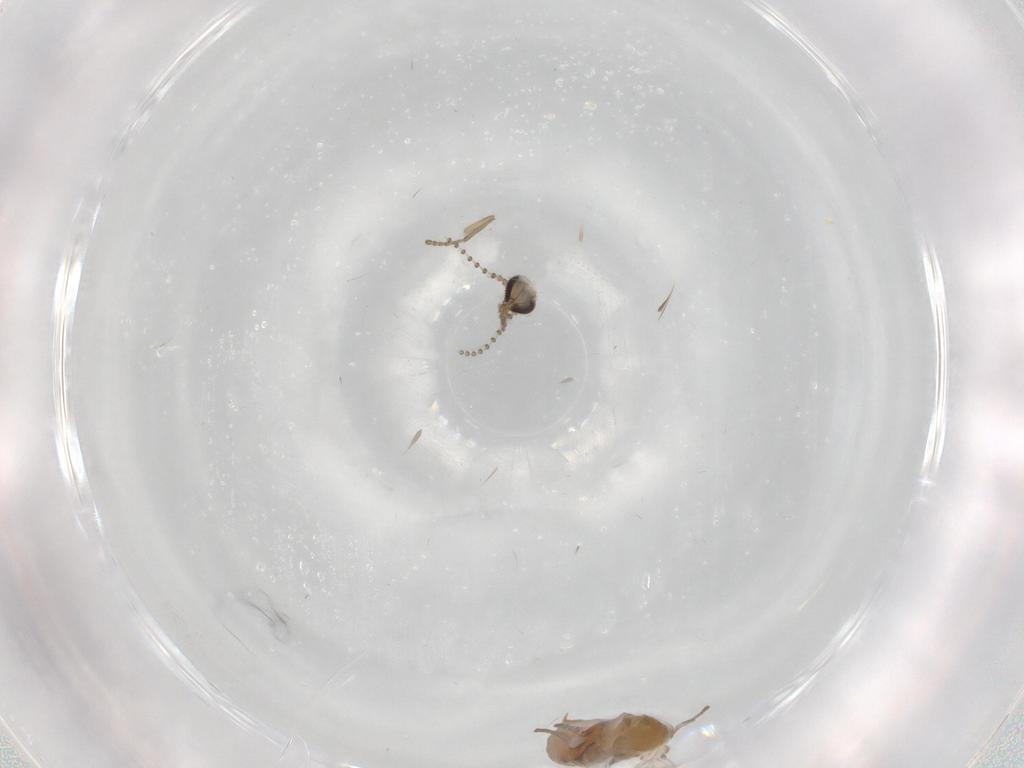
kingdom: Animalia
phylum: Arthropoda
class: Insecta
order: Diptera
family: Psychodidae
